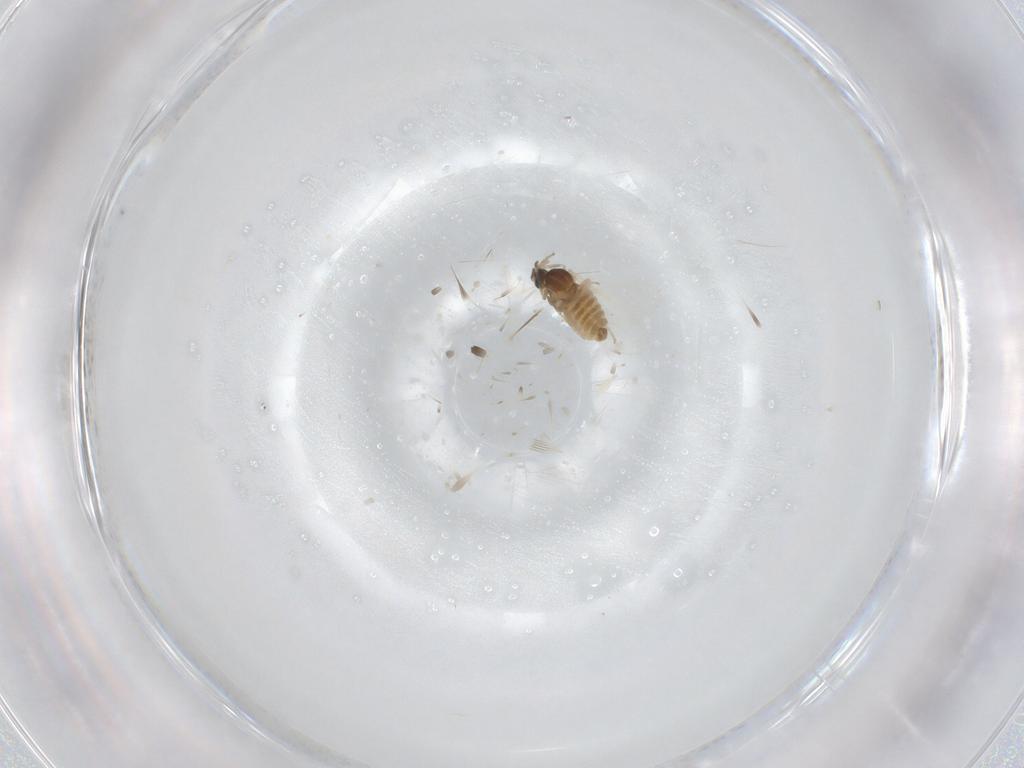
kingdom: Animalia
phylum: Arthropoda
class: Insecta
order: Diptera
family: Cecidomyiidae
